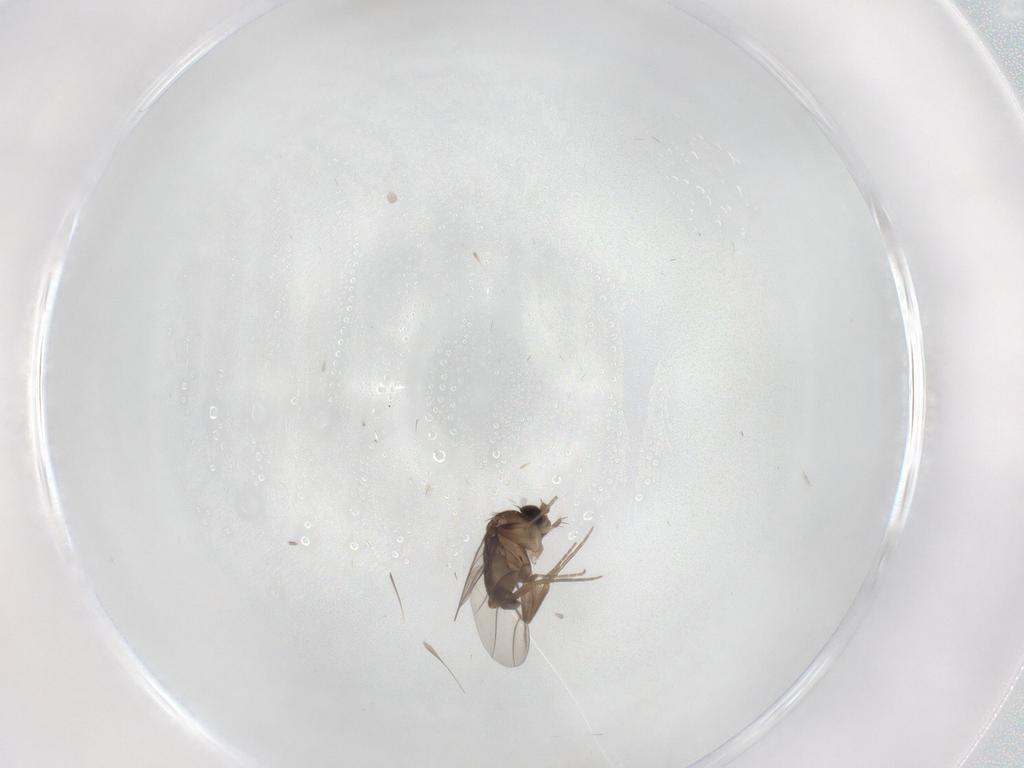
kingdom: Animalia
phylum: Arthropoda
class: Insecta
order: Diptera
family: Phoridae
